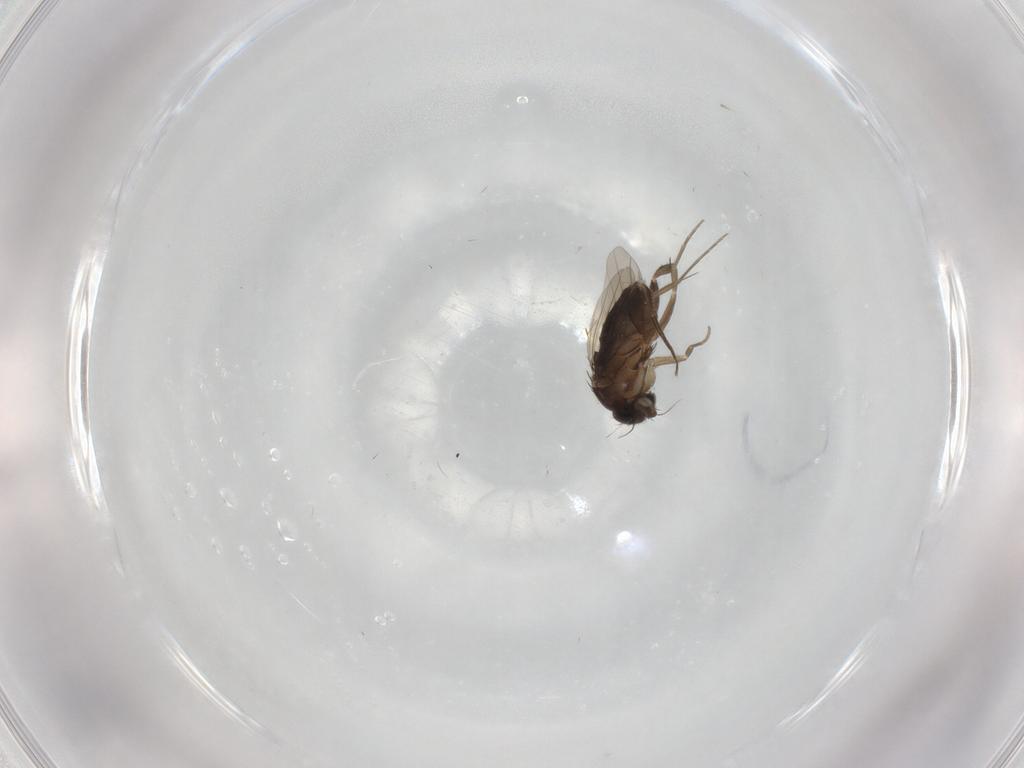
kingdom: Animalia
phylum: Arthropoda
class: Insecta
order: Diptera
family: Phoridae
